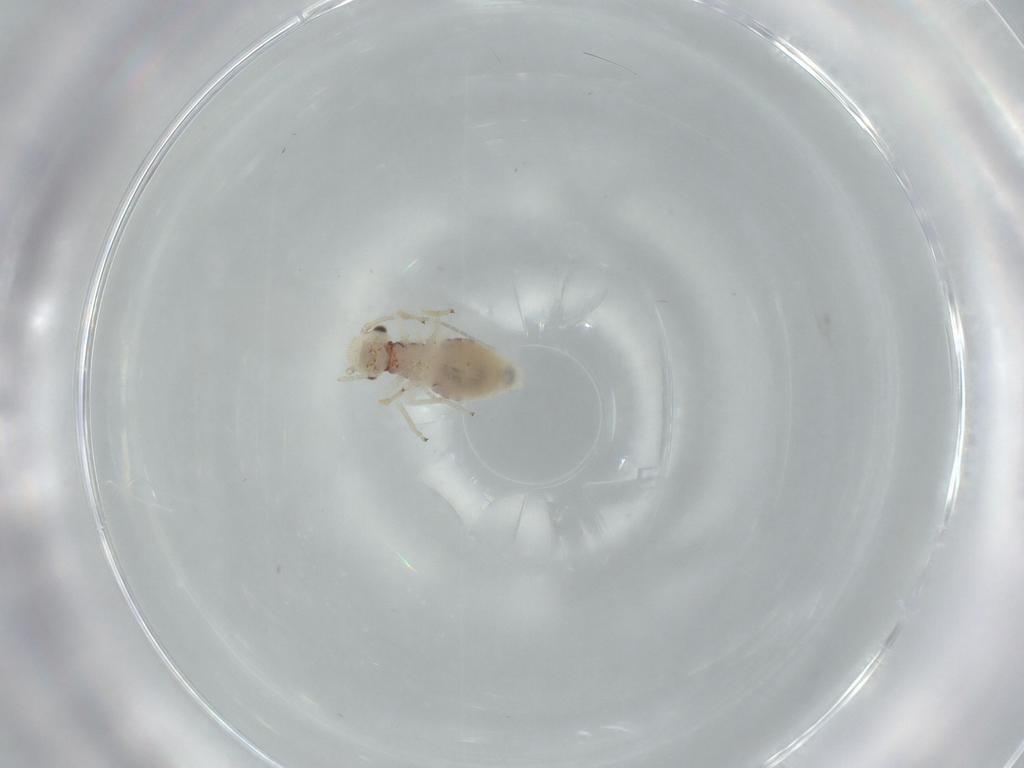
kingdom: Animalia
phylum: Arthropoda
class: Insecta
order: Psocodea
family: Caeciliusidae
